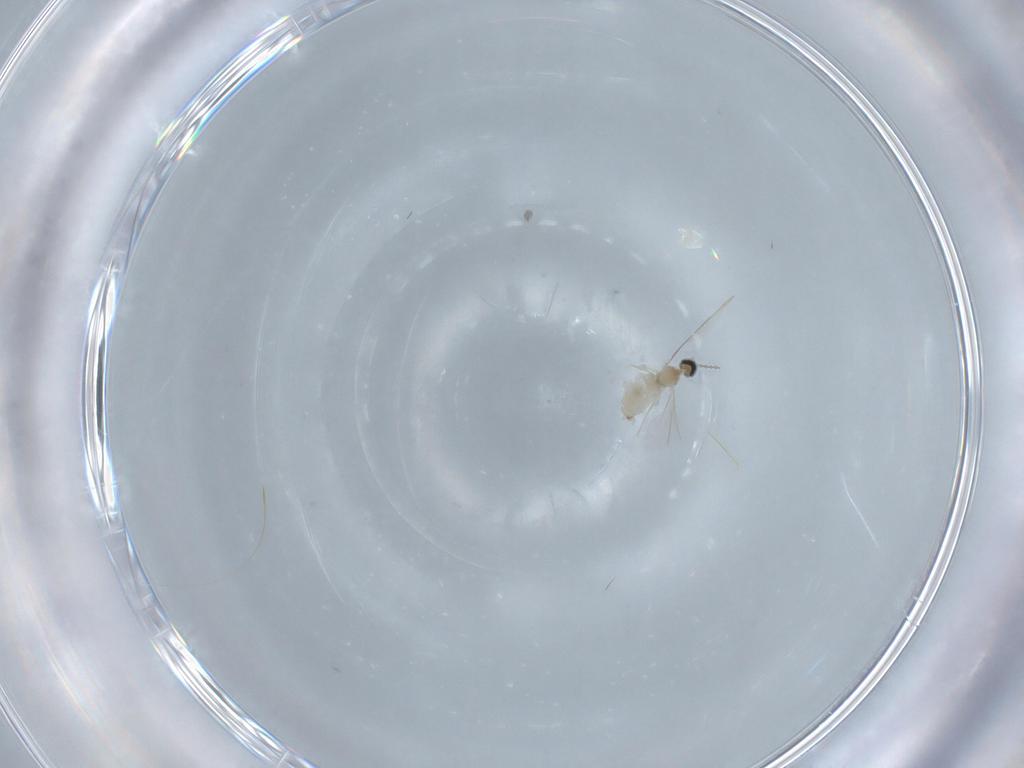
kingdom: Animalia
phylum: Arthropoda
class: Insecta
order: Diptera
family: Cecidomyiidae
